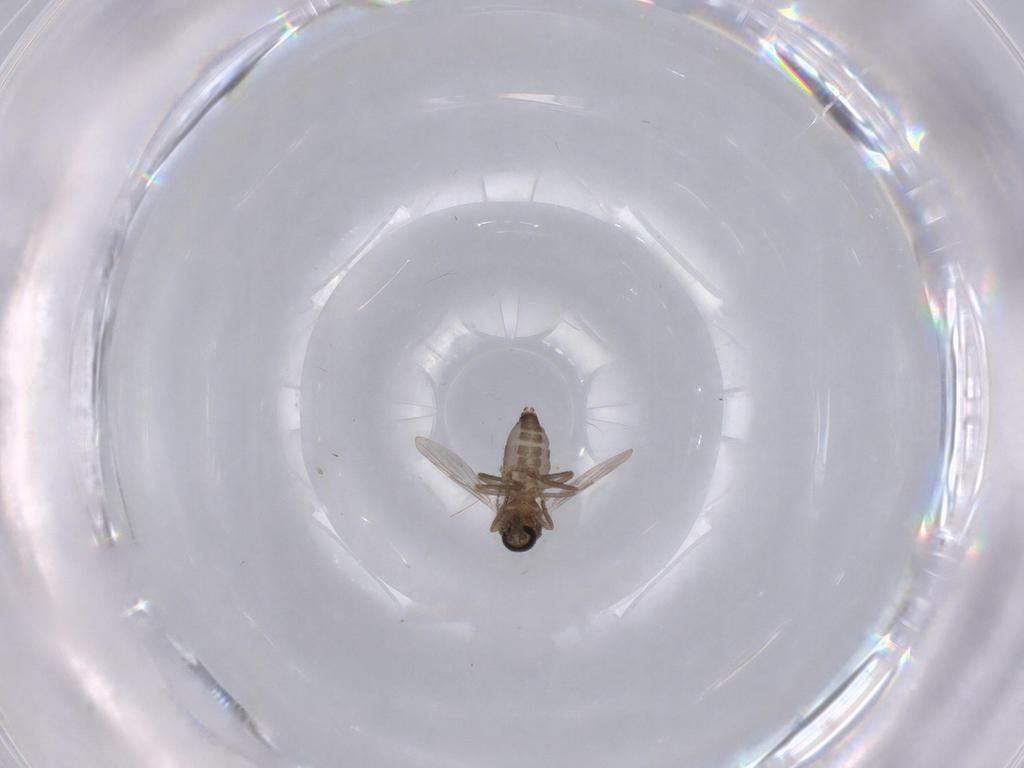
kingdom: Animalia
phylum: Arthropoda
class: Insecta
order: Diptera
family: Ceratopogonidae
